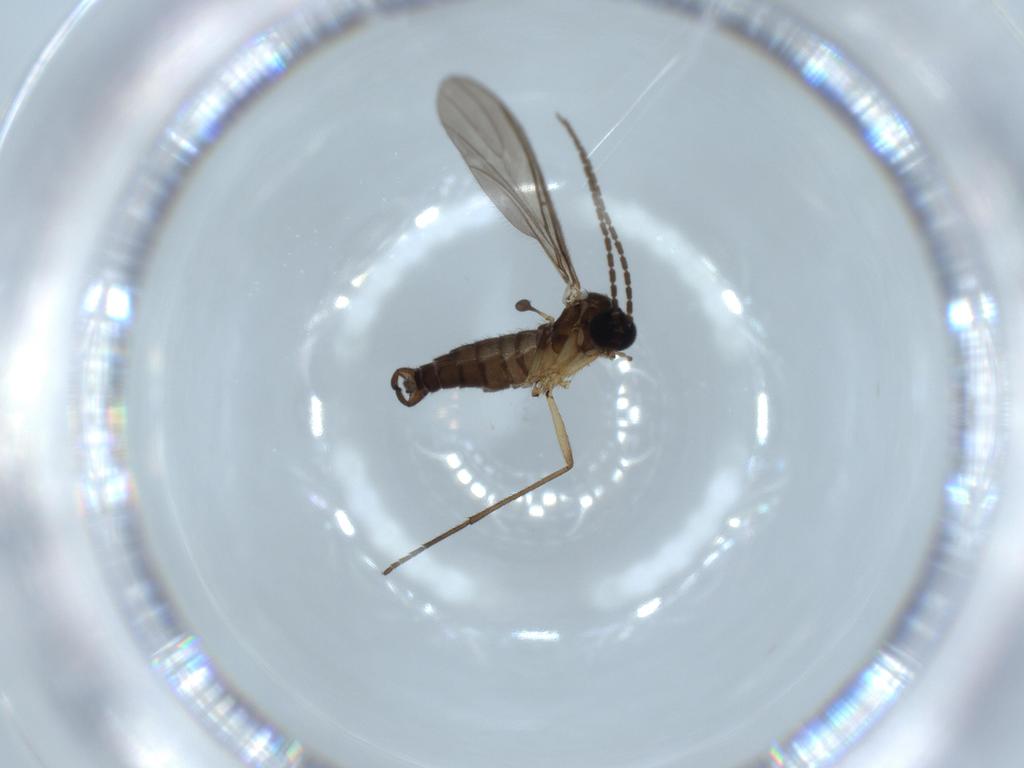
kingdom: Animalia
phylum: Arthropoda
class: Insecta
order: Diptera
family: Sciaridae
